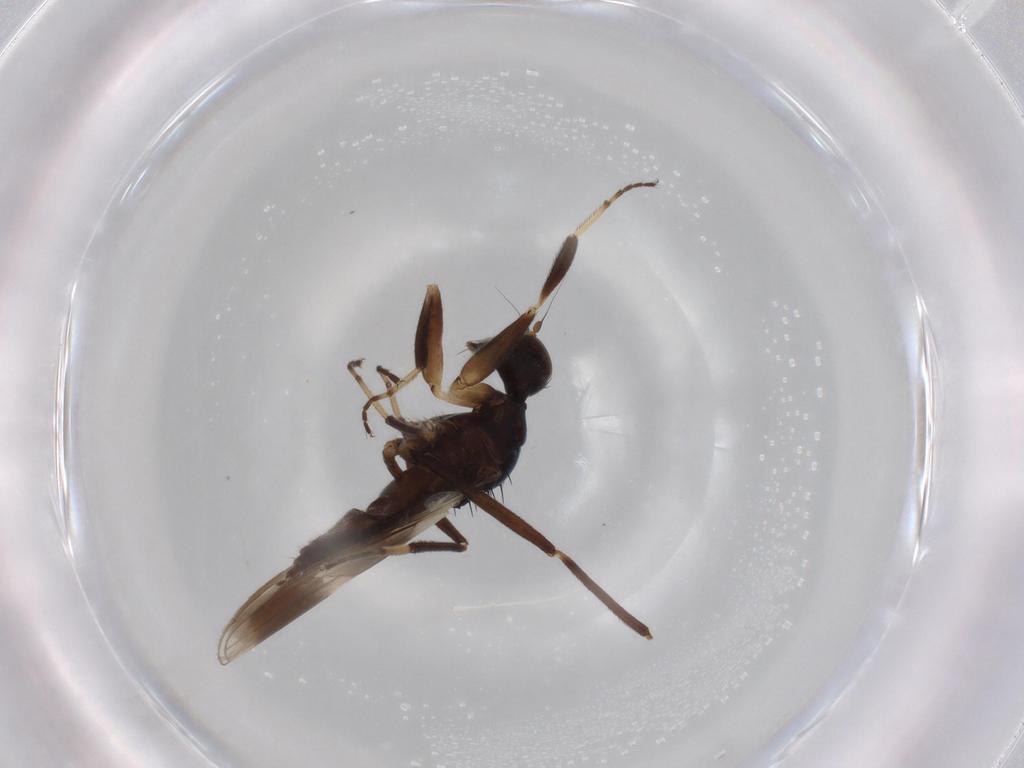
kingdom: Animalia
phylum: Arthropoda
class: Insecta
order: Diptera
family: Hybotidae
